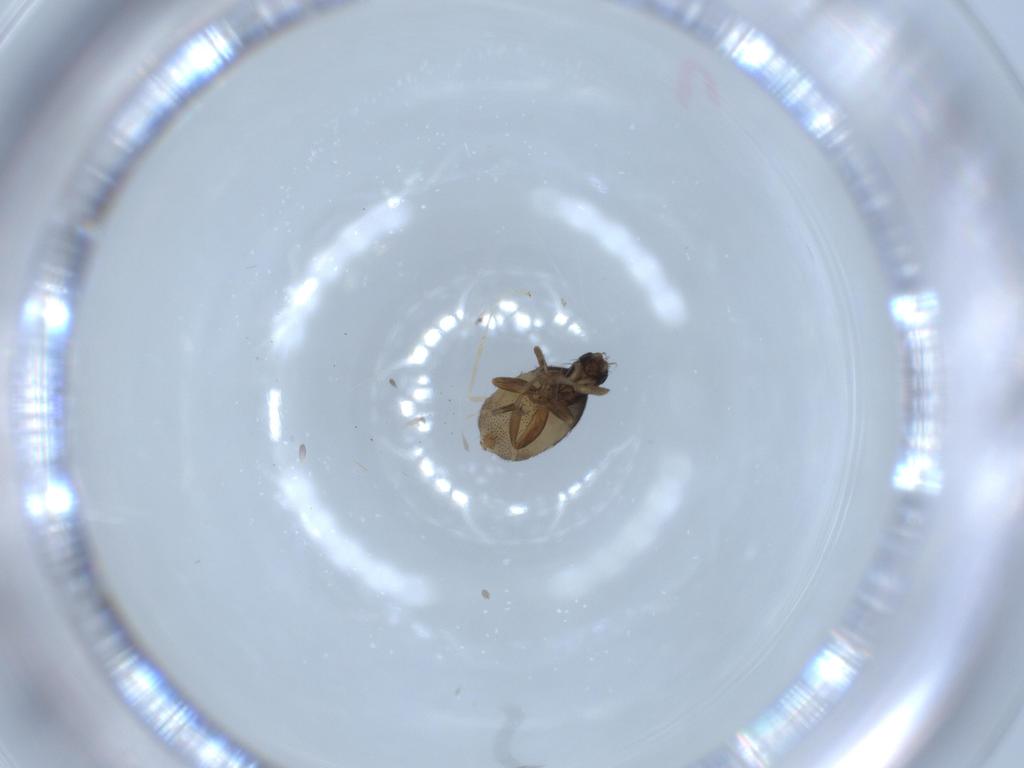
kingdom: Animalia
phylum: Arthropoda
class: Insecta
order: Diptera
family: Phoridae
